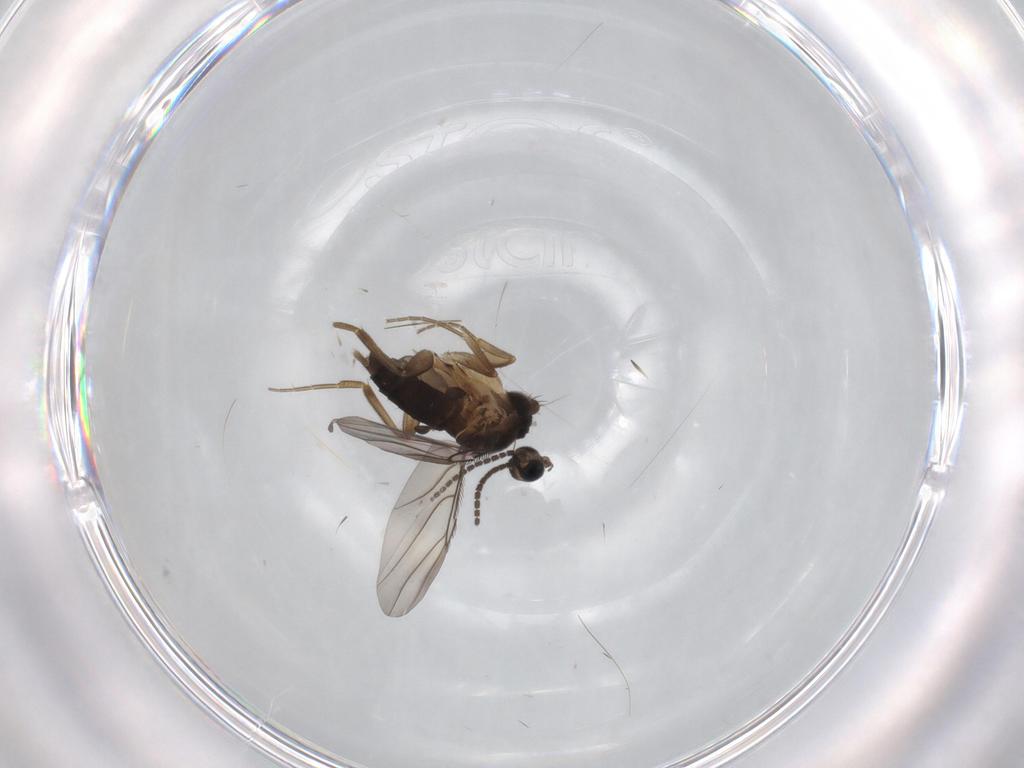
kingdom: Animalia
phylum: Arthropoda
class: Insecta
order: Diptera
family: Phoridae
